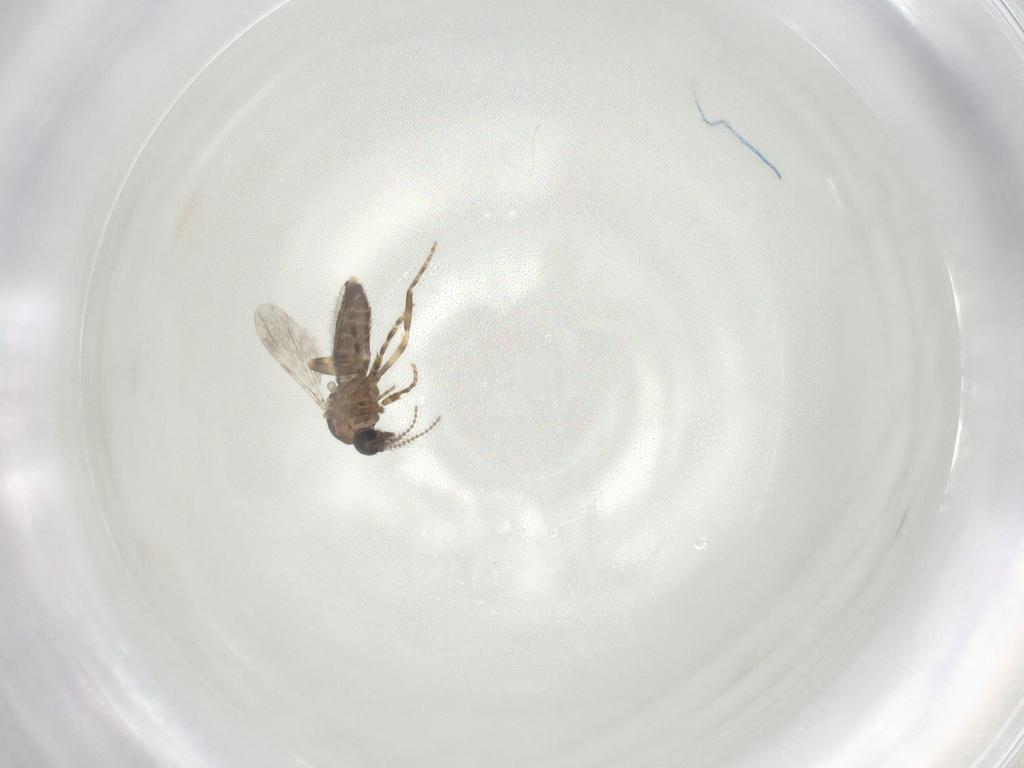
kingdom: Animalia
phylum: Arthropoda
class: Insecta
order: Diptera
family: Ceratopogonidae
